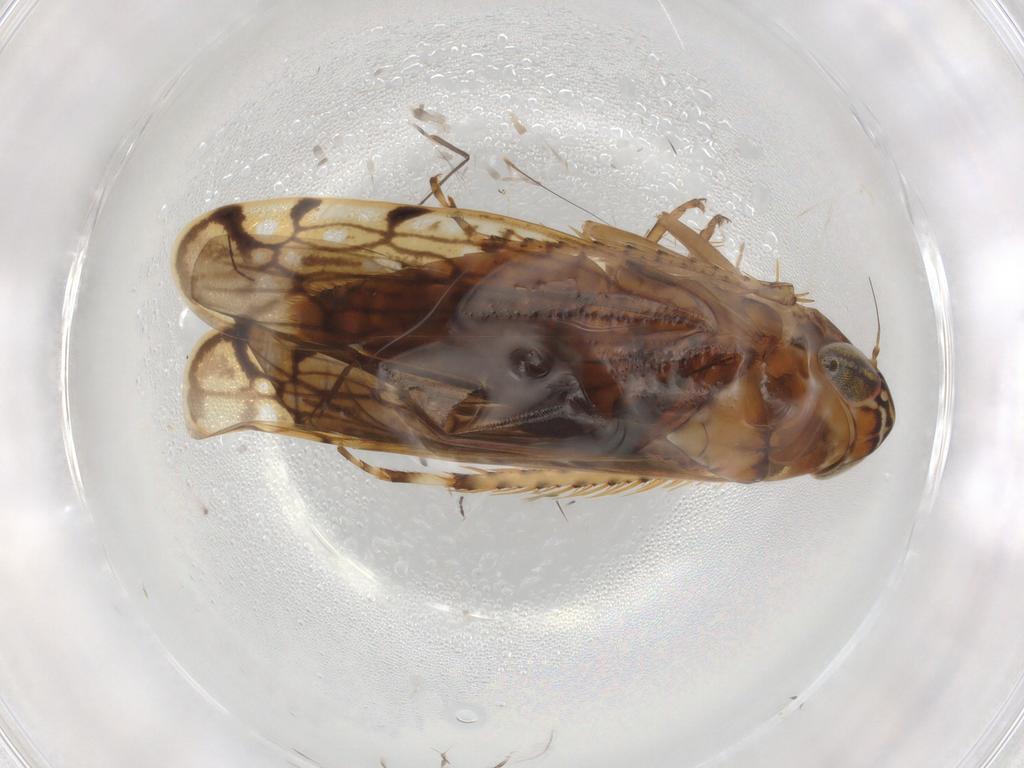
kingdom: Animalia
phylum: Arthropoda
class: Insecta
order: Hemiptera
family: Cicadellidae
